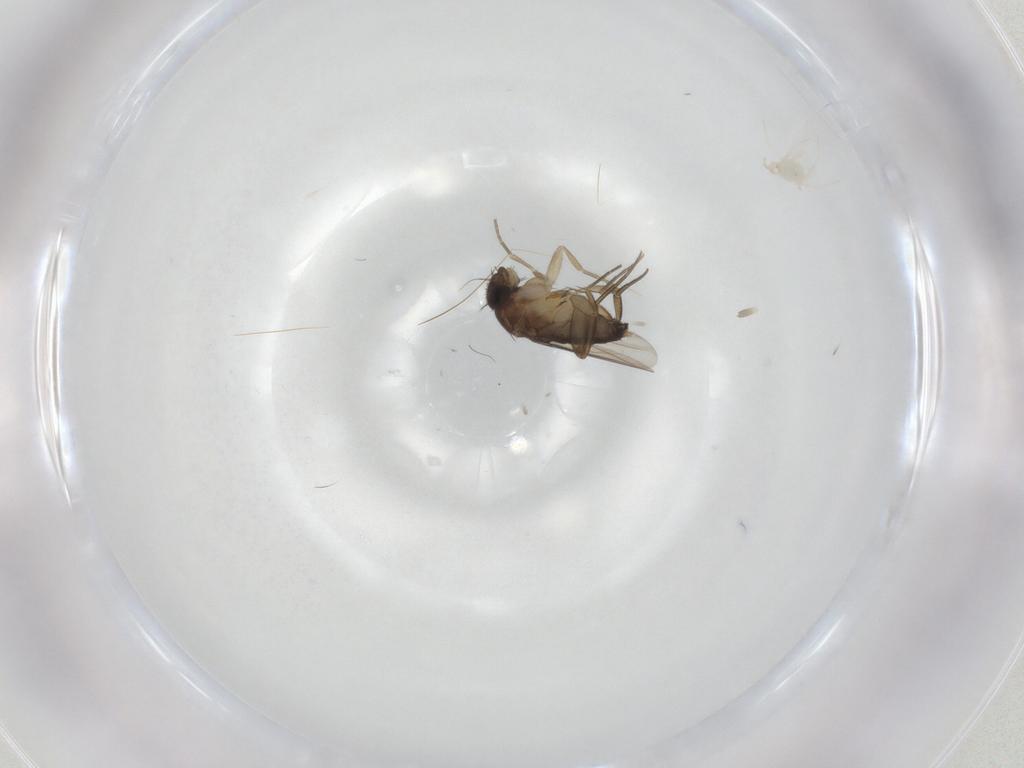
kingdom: Animalia
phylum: Arthropoda
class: Insecta
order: Diptera
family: Phoridae
